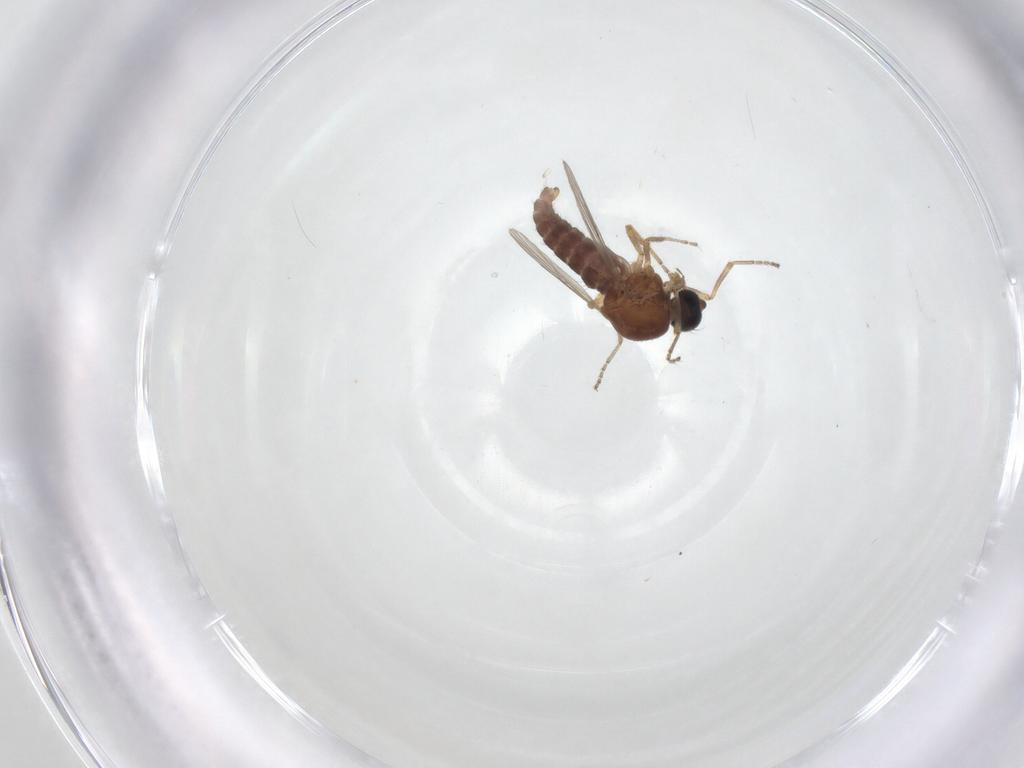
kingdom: Animalia
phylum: Arthropoda
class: Insecta
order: Diptera
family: Ceratopogonidae
